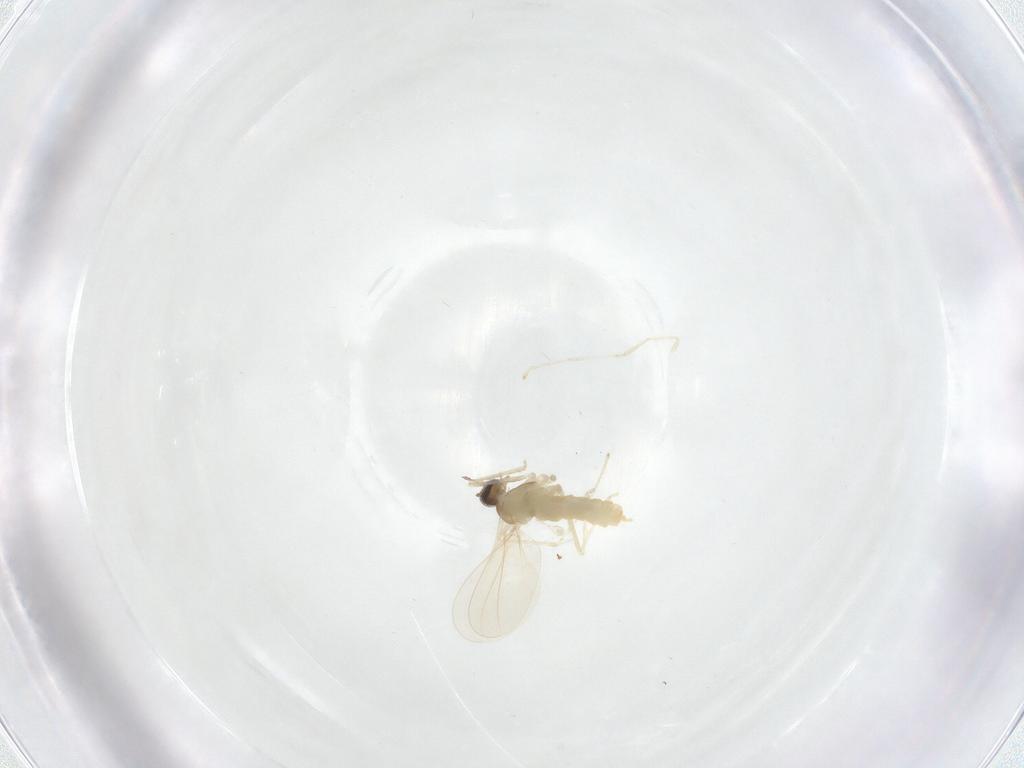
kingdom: Animalia
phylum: Arthropoda
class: Insecta
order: Diptera
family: Cecidomyiidae
